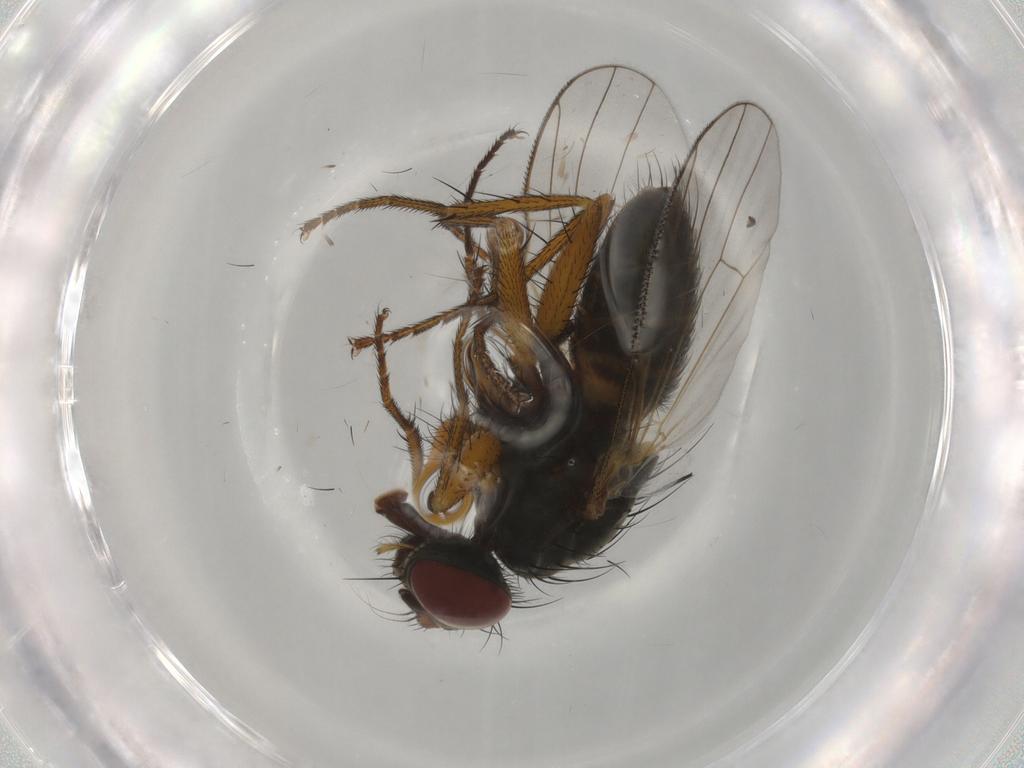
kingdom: Animalia
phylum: Arthropoda
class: Insecta
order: Diptera
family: Muscidae
